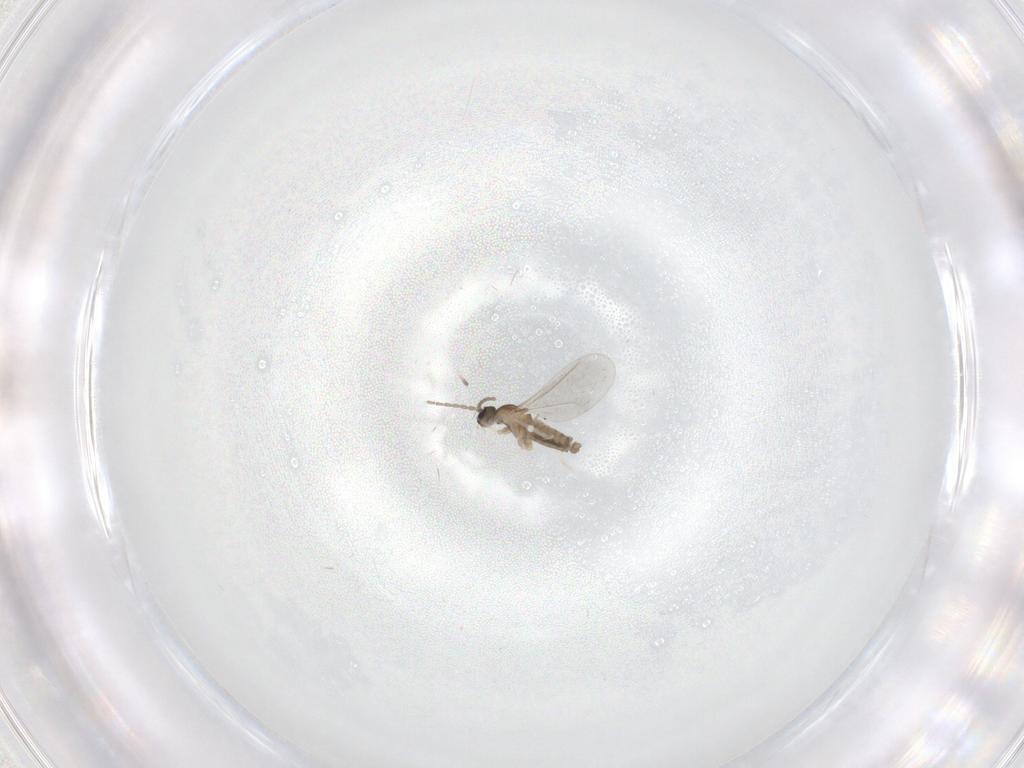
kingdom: Animalia
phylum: Arthropoda
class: Insecta
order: Diptera
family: Cecidomyiidae
